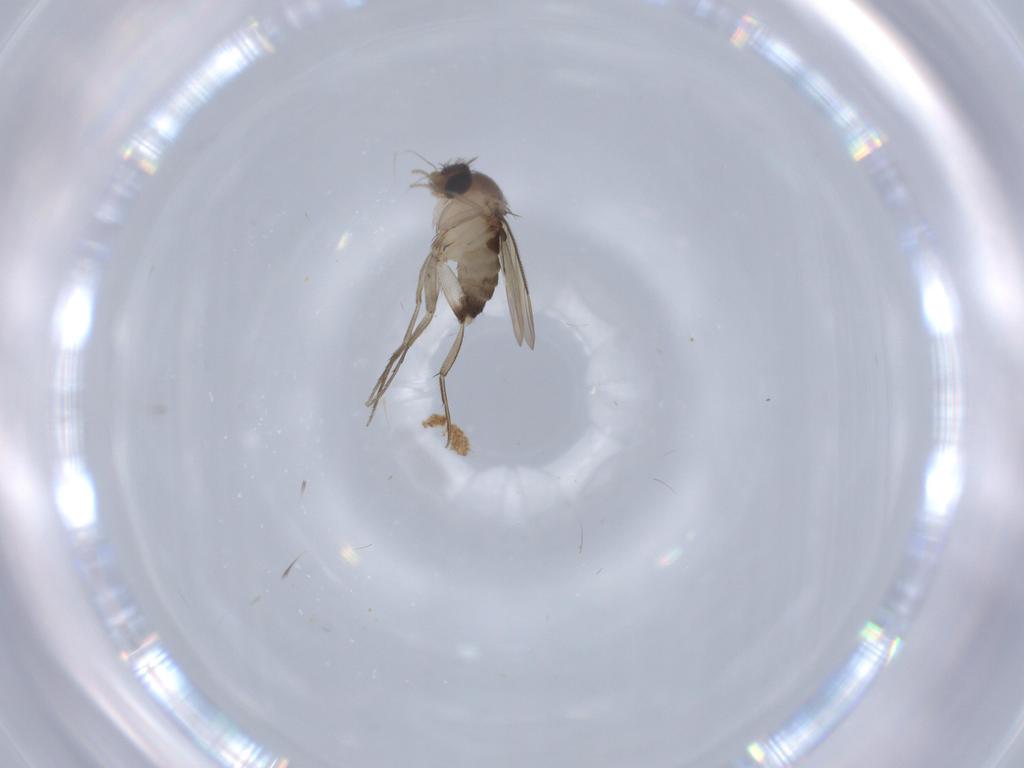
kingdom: Animalia
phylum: Arthropoda
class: Insecta
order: Diptera
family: Phoridae
